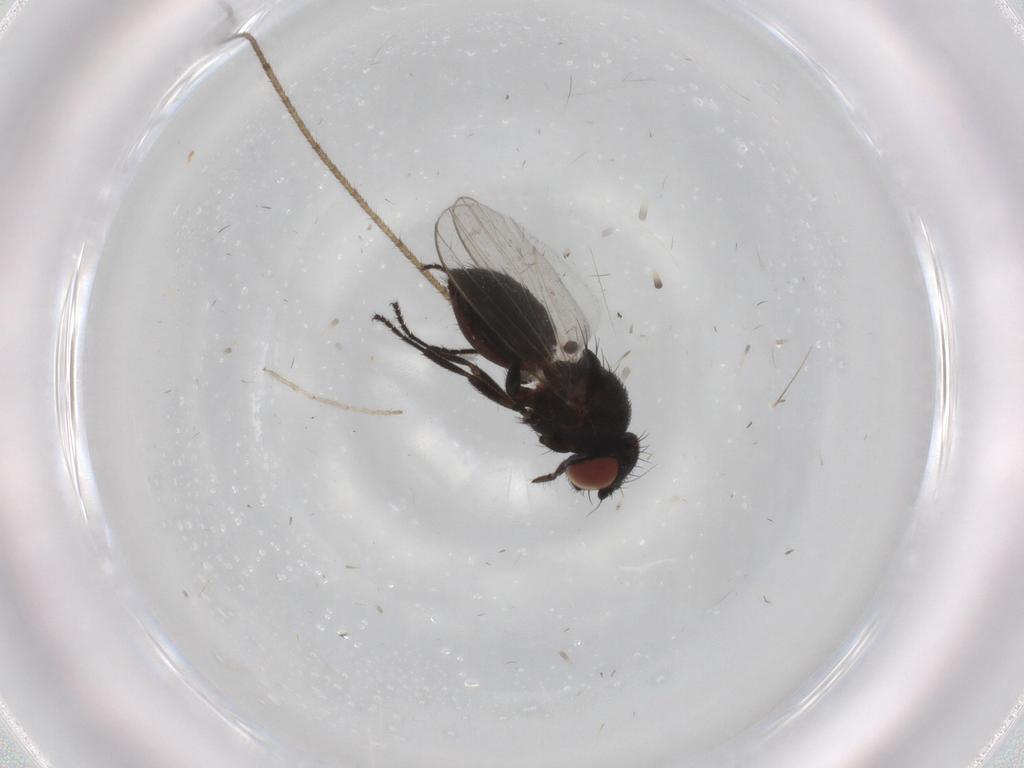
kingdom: Animalia
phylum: Arthropoda
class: Insecta
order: Diptera
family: Milichiidae
